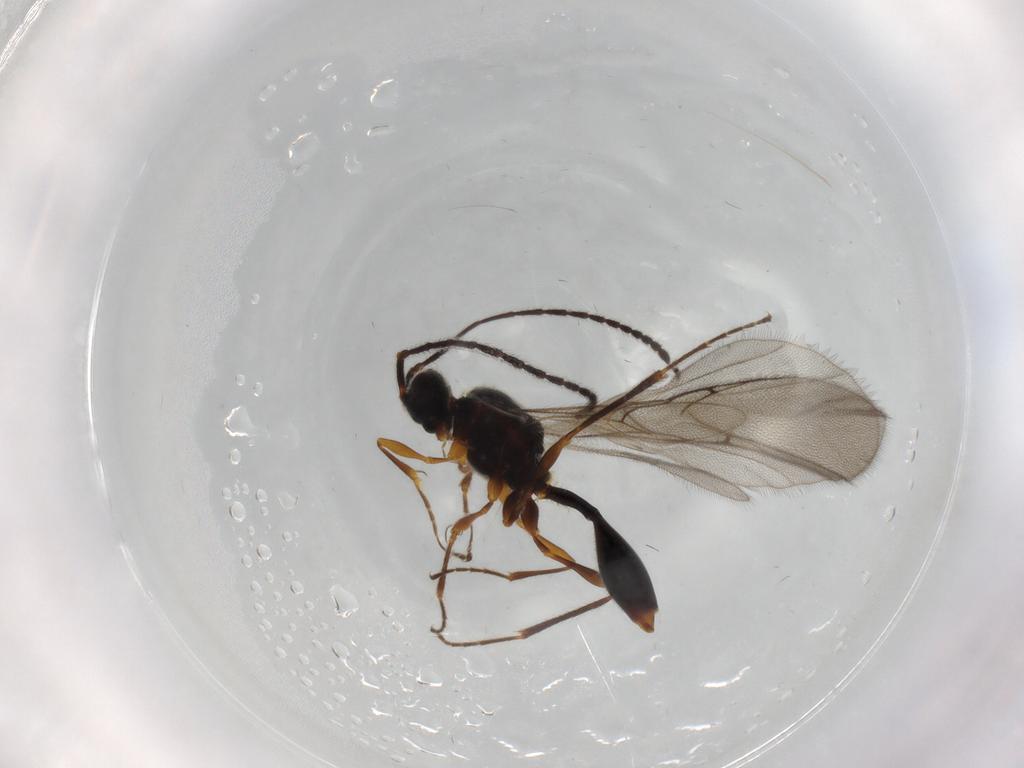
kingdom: Animalia
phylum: Arthropoda
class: Insecta
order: Hymenoptera
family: Diapriidae
